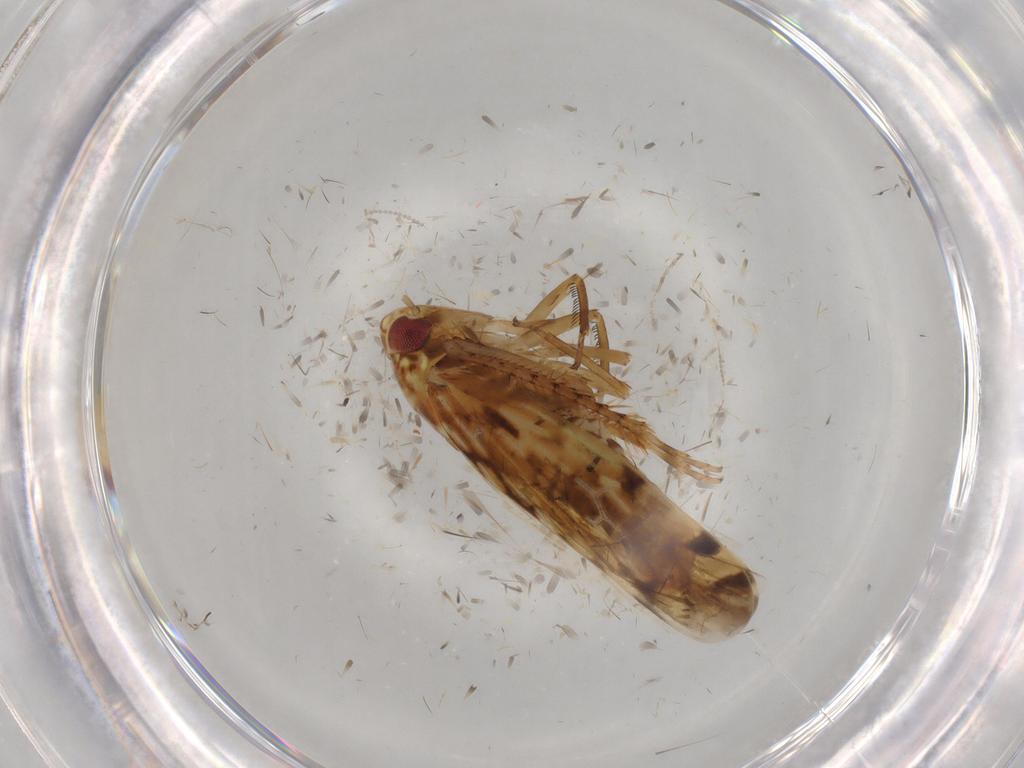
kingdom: Animalia
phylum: Arthropoda
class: Insecta
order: Hemiptera
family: Cicadellidae
